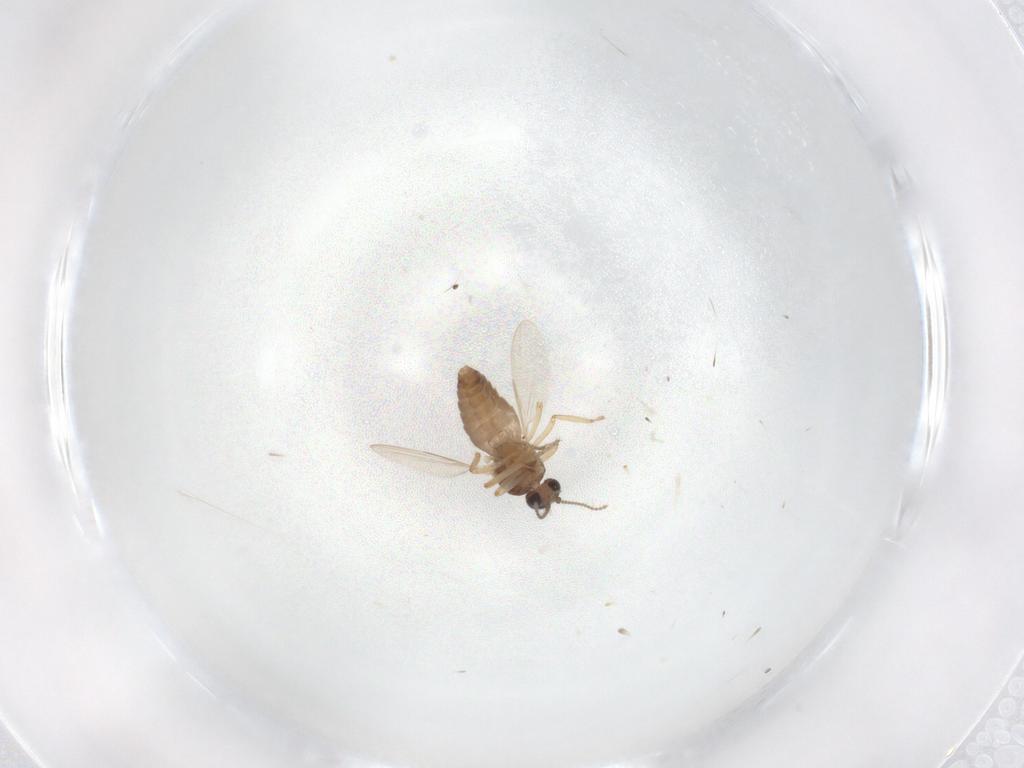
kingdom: Animalia
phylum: Arthropoda
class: Insecta
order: Diptera
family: Ceratopogonidae
